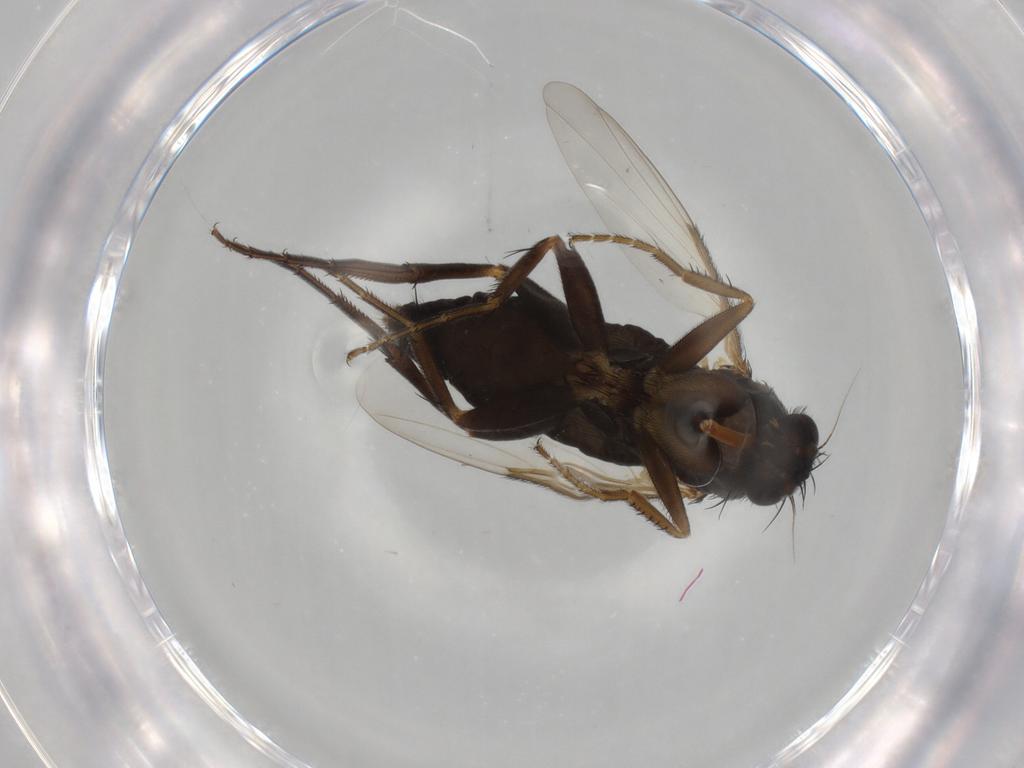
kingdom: Animalia
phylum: Arthropoda
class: Insecta
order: Diptera
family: Phoridae
